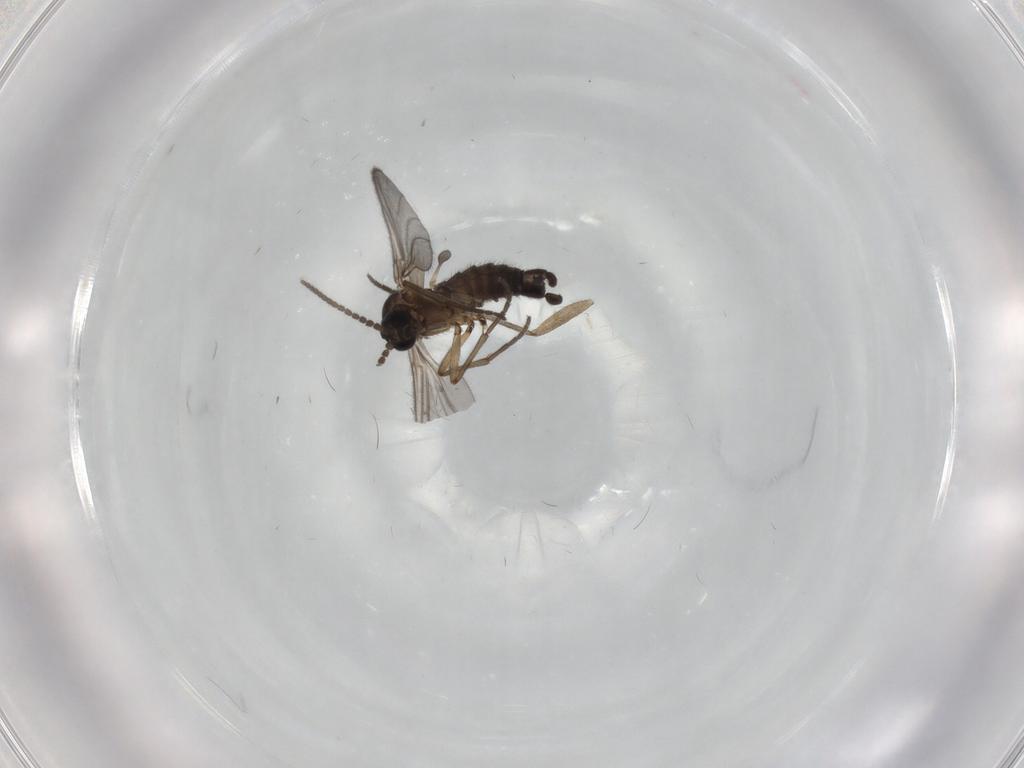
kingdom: Animalia
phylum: Arthropoda
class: Insecta
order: Diptera
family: Sciaridae
